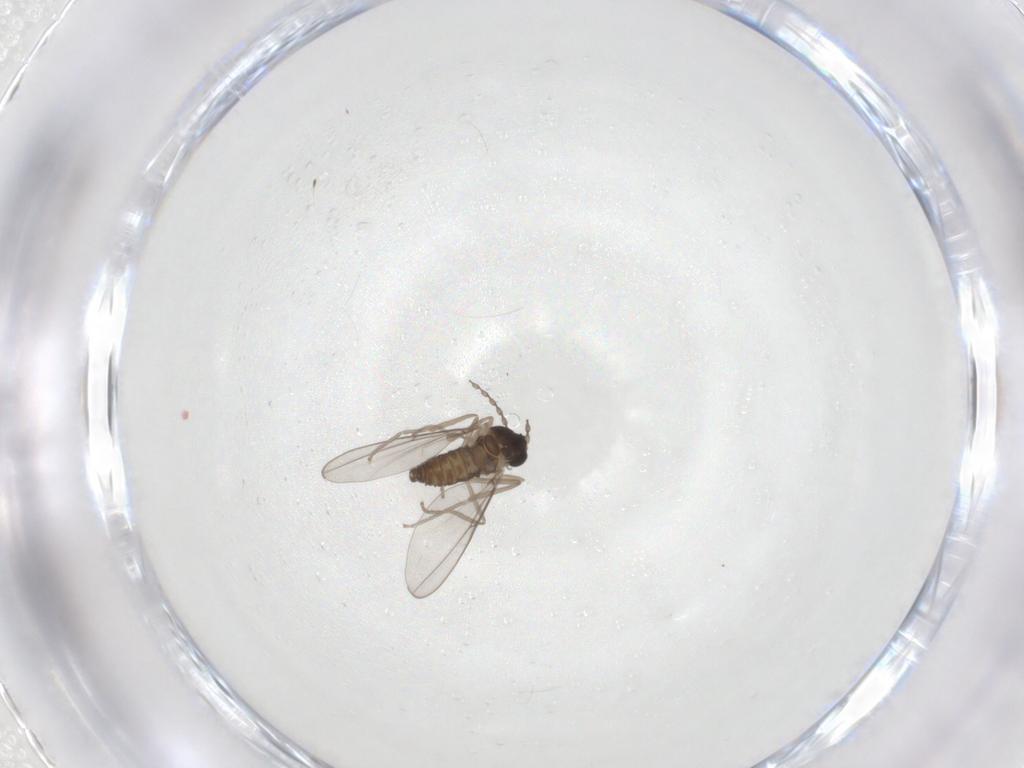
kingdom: Animalia
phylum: Arthropoda
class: Insecta
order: Diptera
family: Cecidomyiidae
